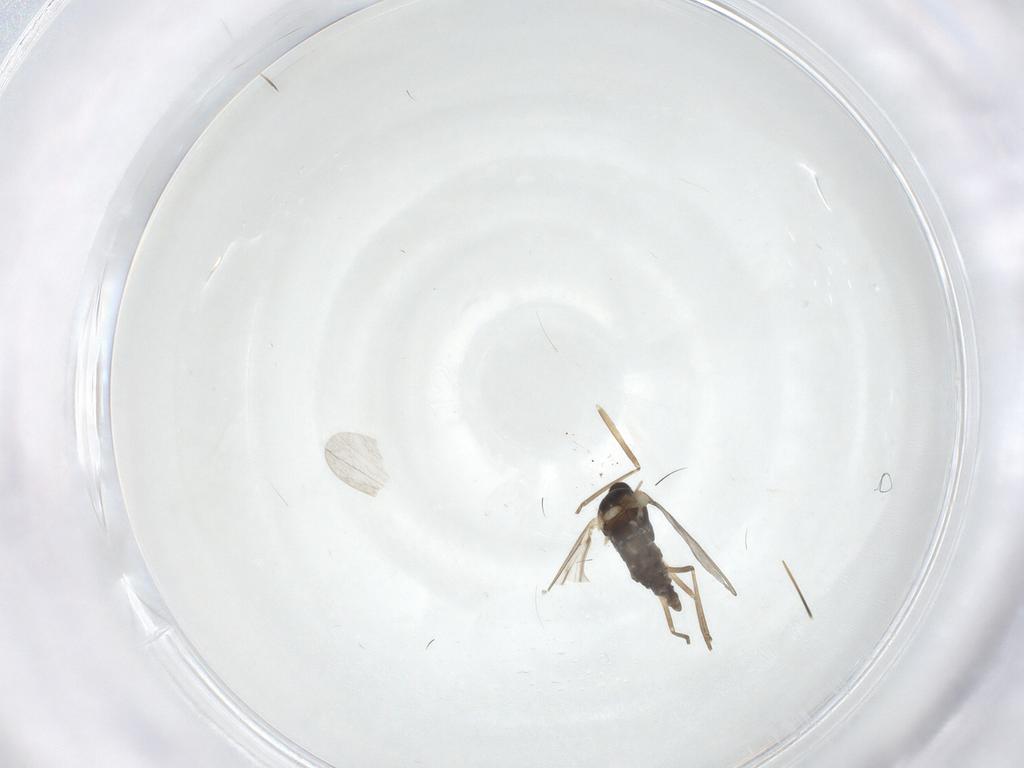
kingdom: Animalia
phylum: Arthropoda
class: Insecta
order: Diptera
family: Cecidomyiidae
